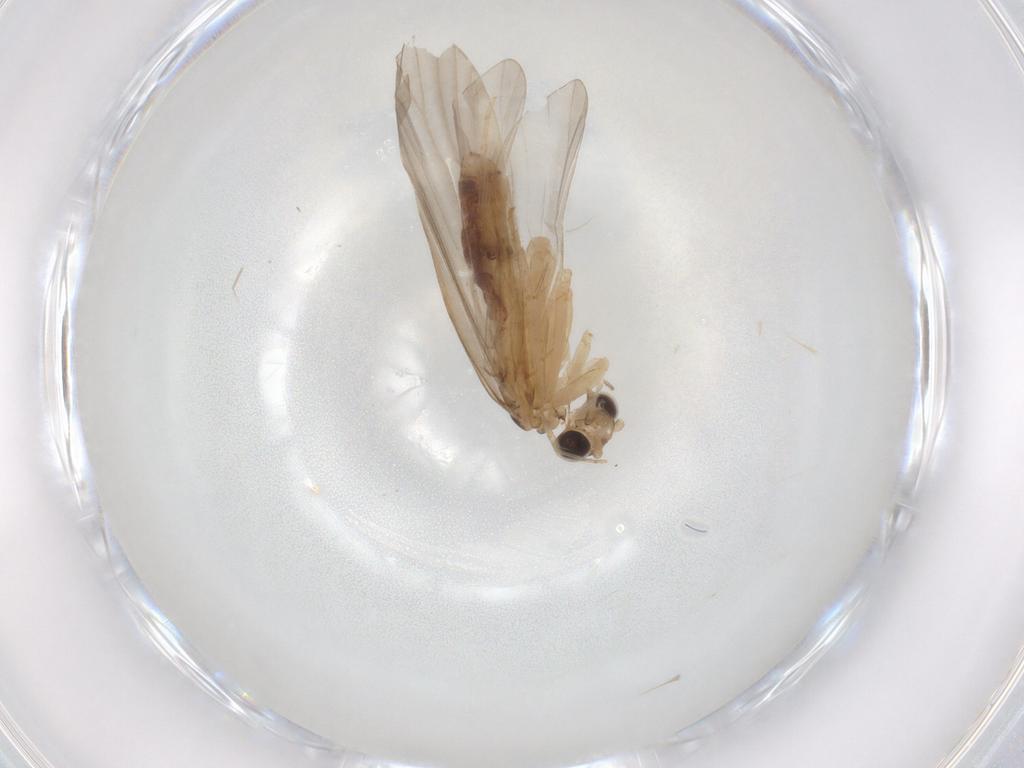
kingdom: Animalia
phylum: Arthropoda
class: Insecta
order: Trichoptera
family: Ecnomidae
